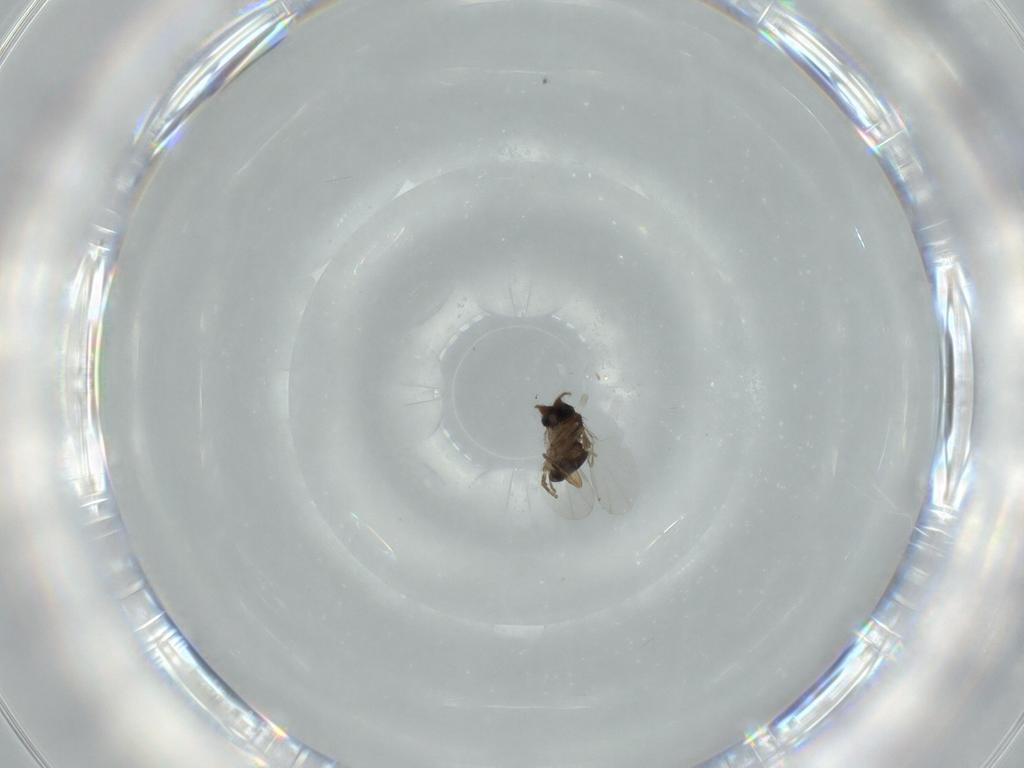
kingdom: Animalia
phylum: Arthropoda
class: Insecta
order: Diptera
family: Phoridae
